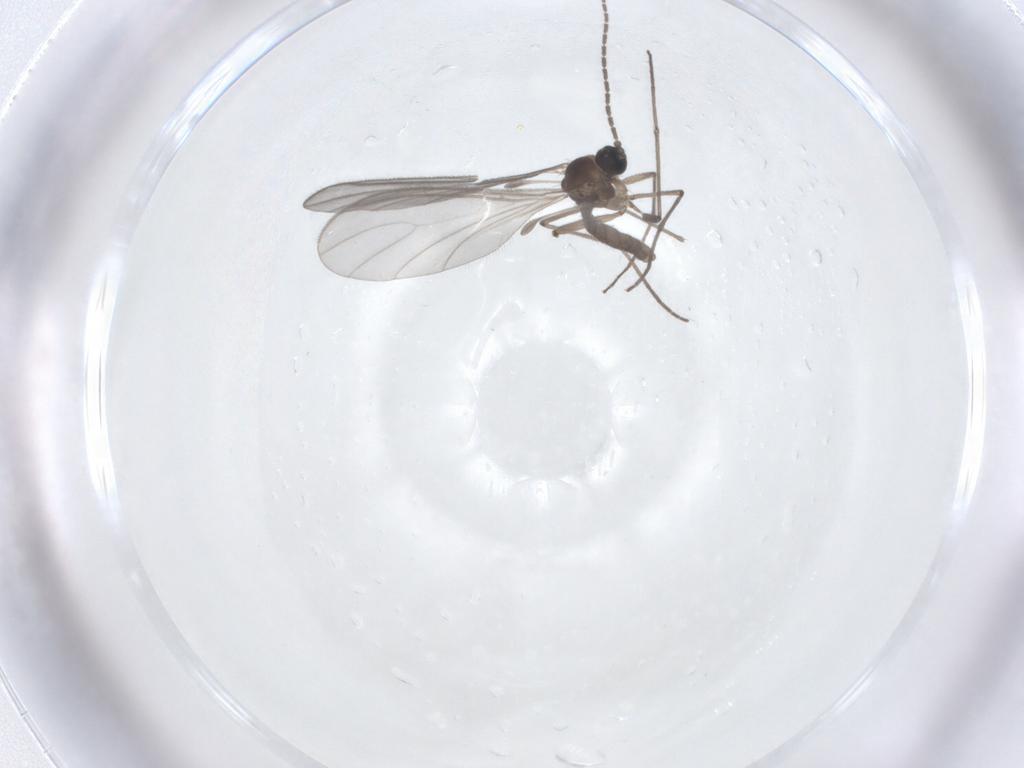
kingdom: Animalia
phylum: Arthropoda
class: Insecta
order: Diptera
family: Sciaridae
